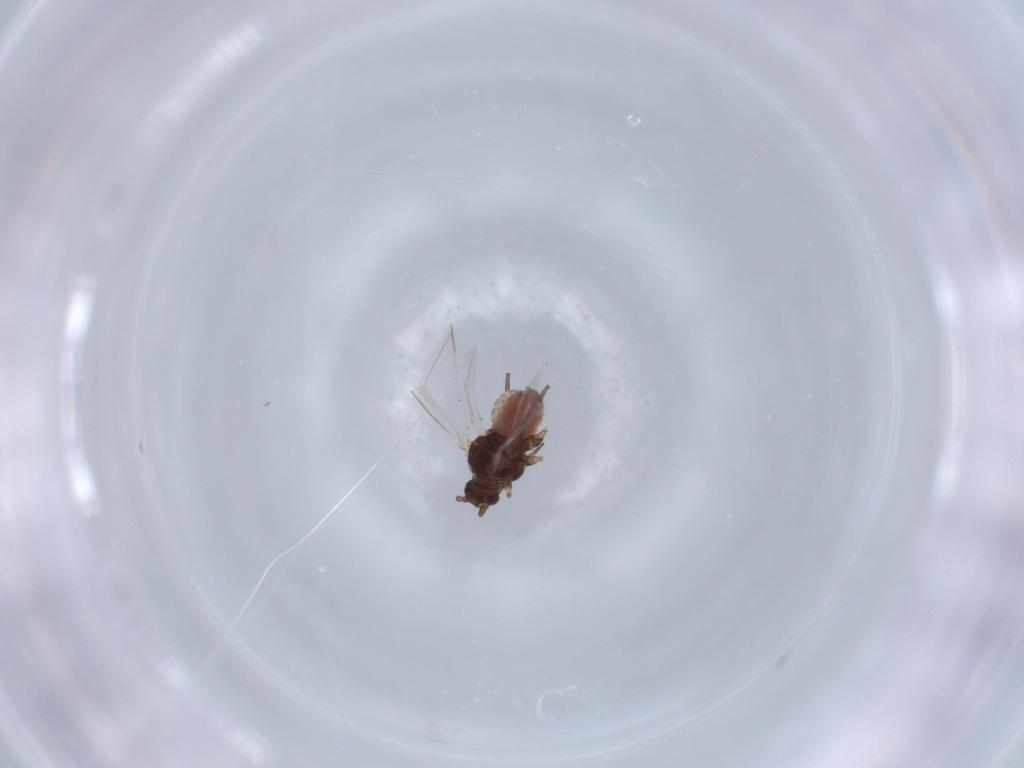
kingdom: Animalia
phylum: Arthropoda
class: Insecta
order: Hemiptera
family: Aphididae
